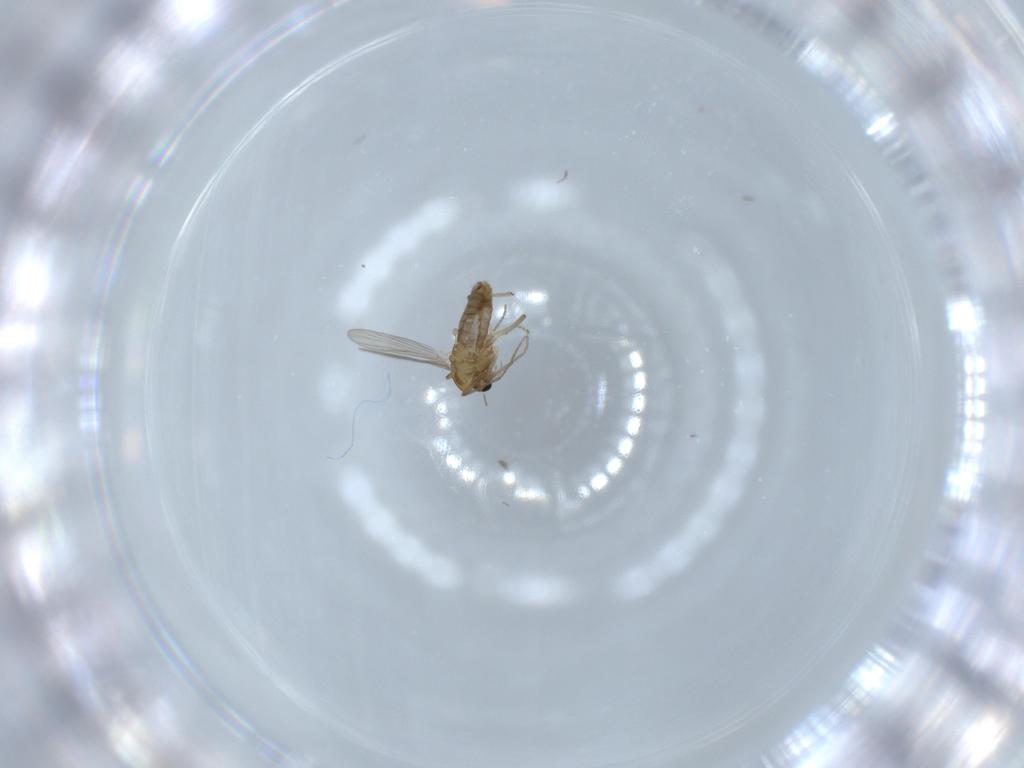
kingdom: Animalia
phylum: Arthropoda
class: Insecta
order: Diptera
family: Chironomidae
